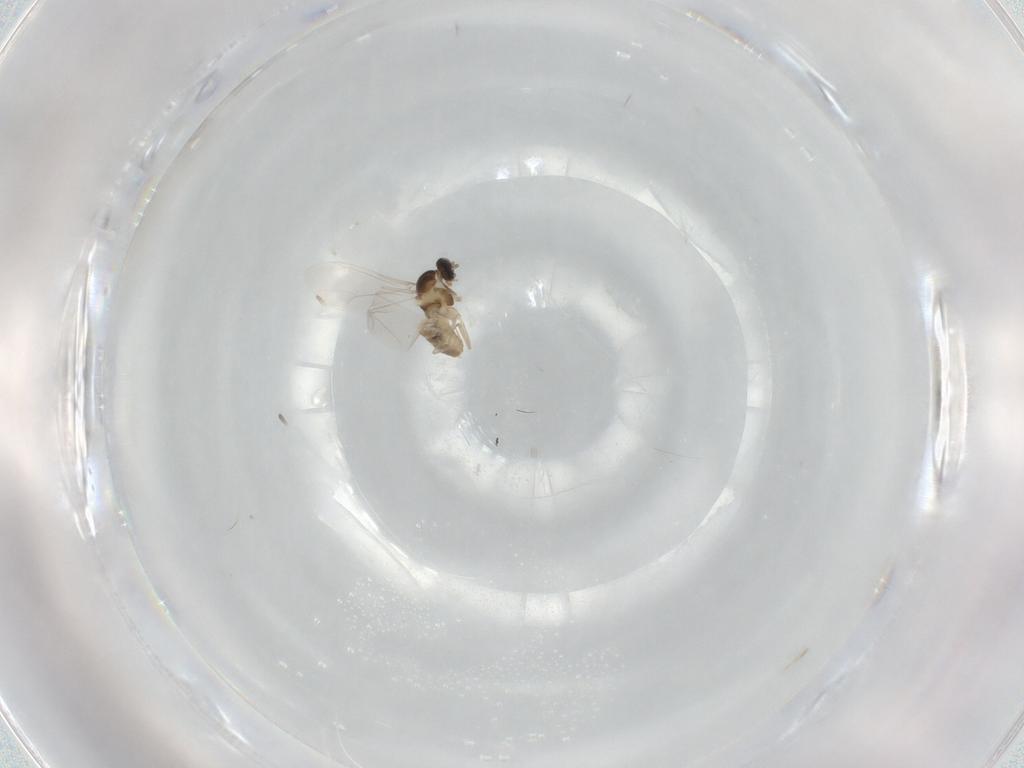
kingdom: Animalia
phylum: Arthropoda
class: Insecta
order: Diptera
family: Cecidomyiidae
